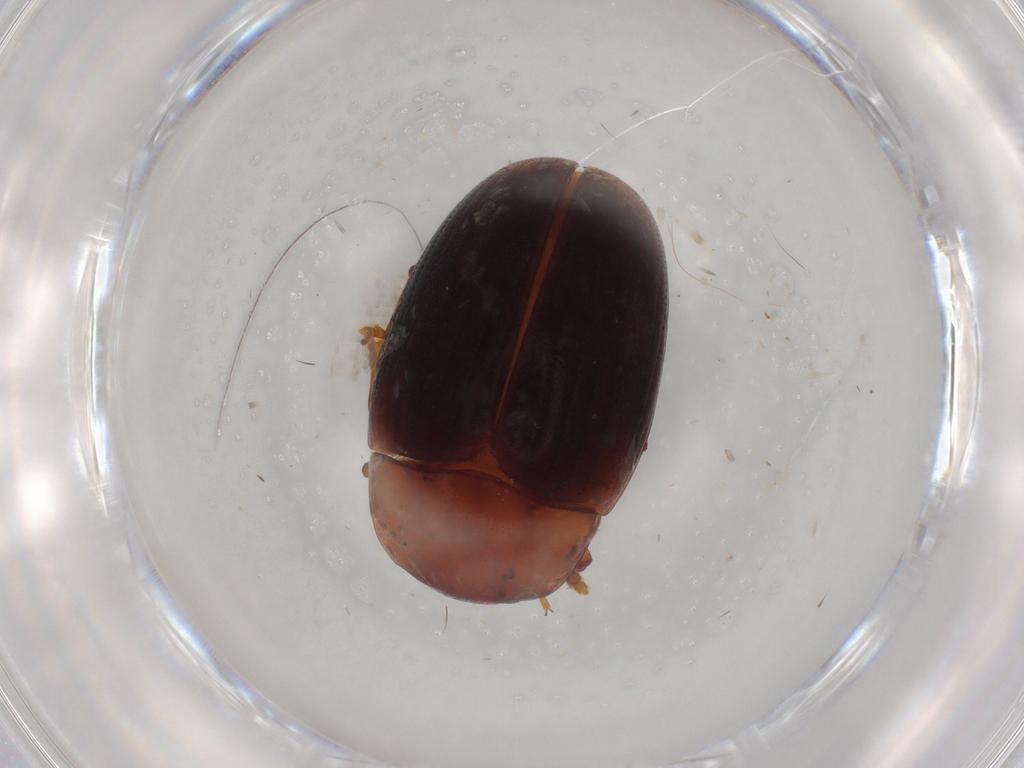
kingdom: Animalia
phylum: Arthropoda
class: Insecta
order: Coleoptera
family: Erotylidae
